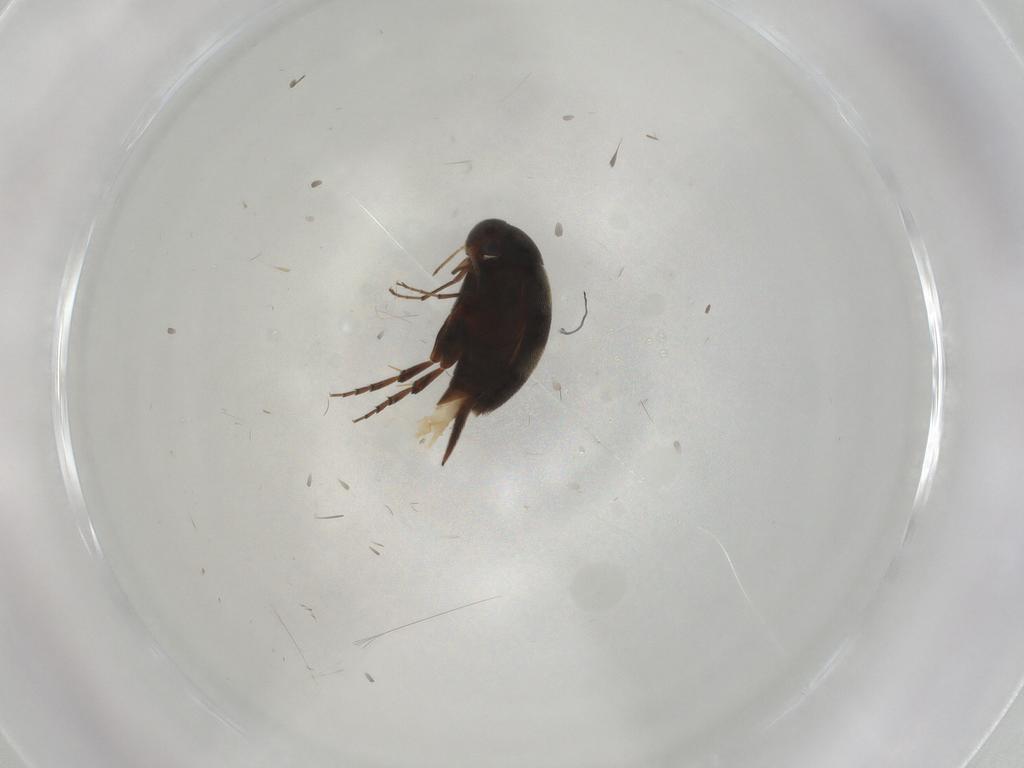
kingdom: Animalia
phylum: Arthropoda
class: Insecta
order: Coleoptera
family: Mordellidae
